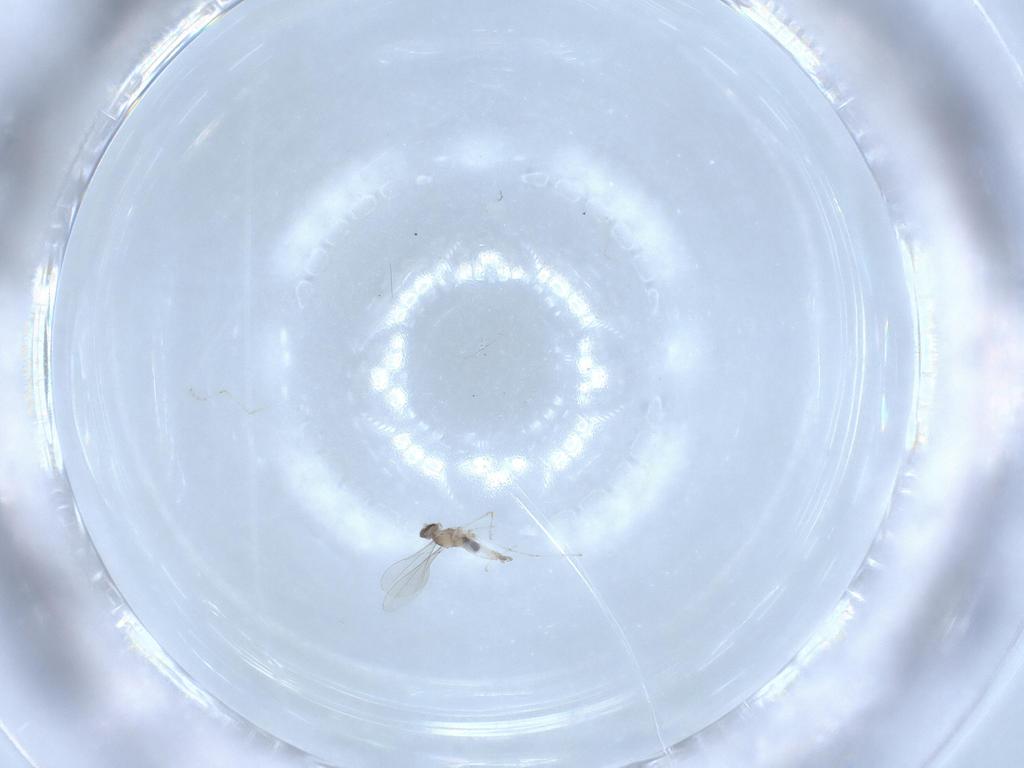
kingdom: Animalia
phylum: Arthropoda
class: Insecta
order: Diptera
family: Cecidomyiidae
